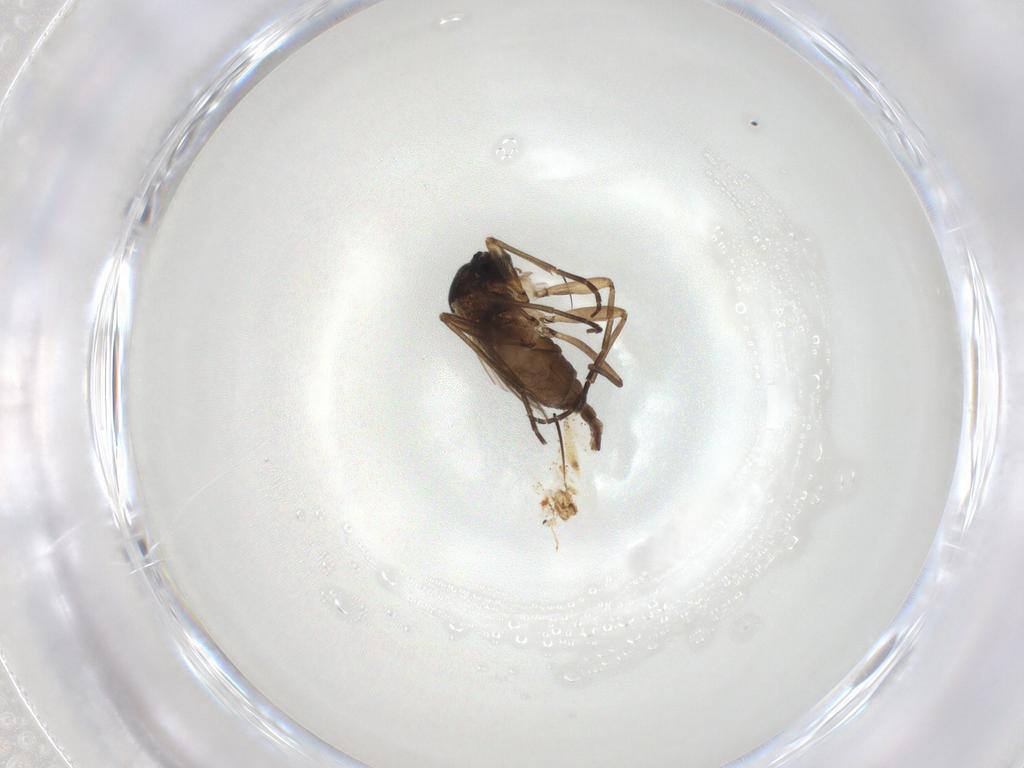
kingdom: Animalia
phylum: Arthropoda
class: Insecta
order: Diptera
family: Sciaridae
